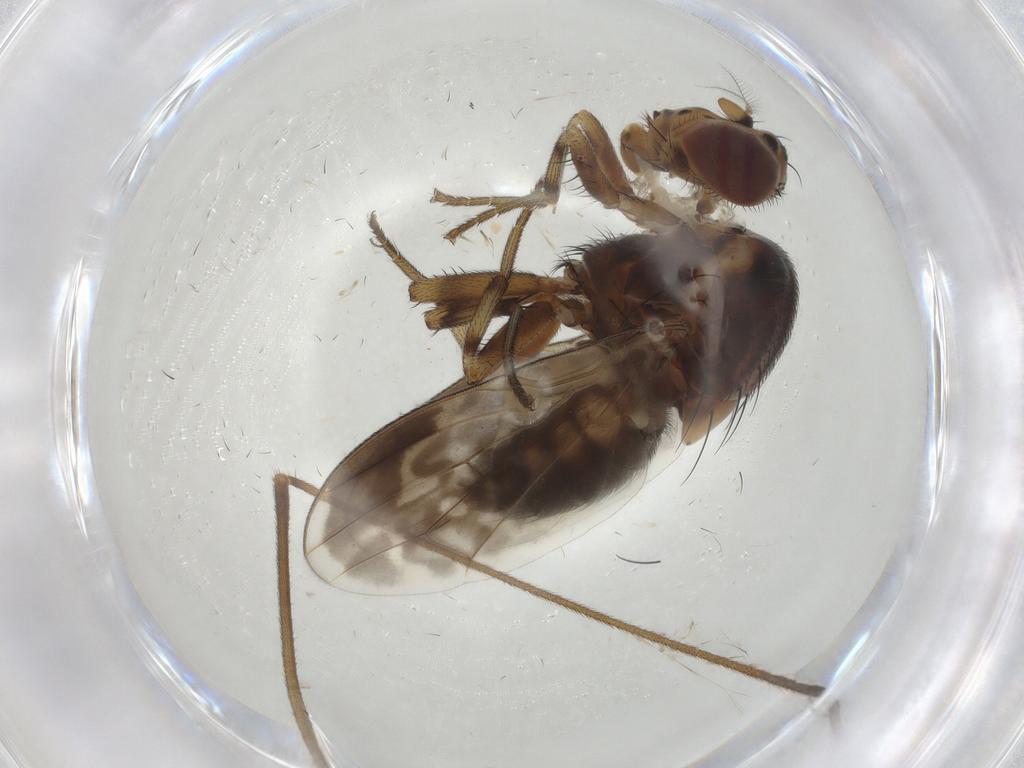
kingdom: Animalia
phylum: Arthropoda
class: Insecta
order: Diptera
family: Chironomidae
